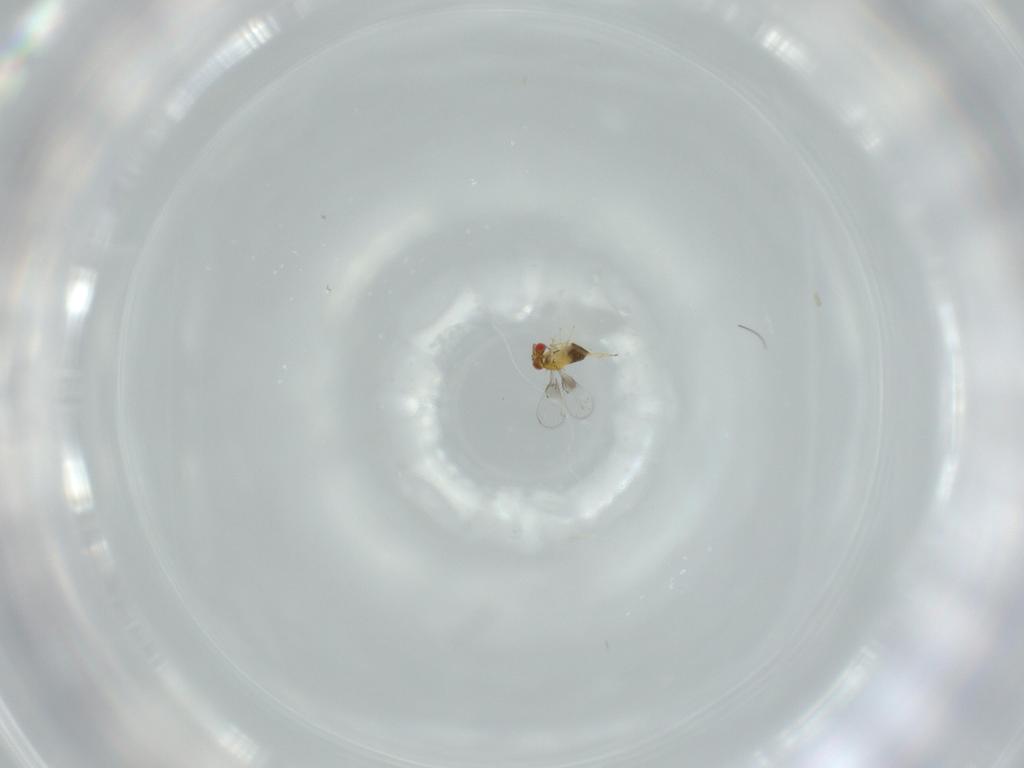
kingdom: Animalia
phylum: Arthropoda
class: Insecta
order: Hymenoptera
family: Trichogrammatidae
